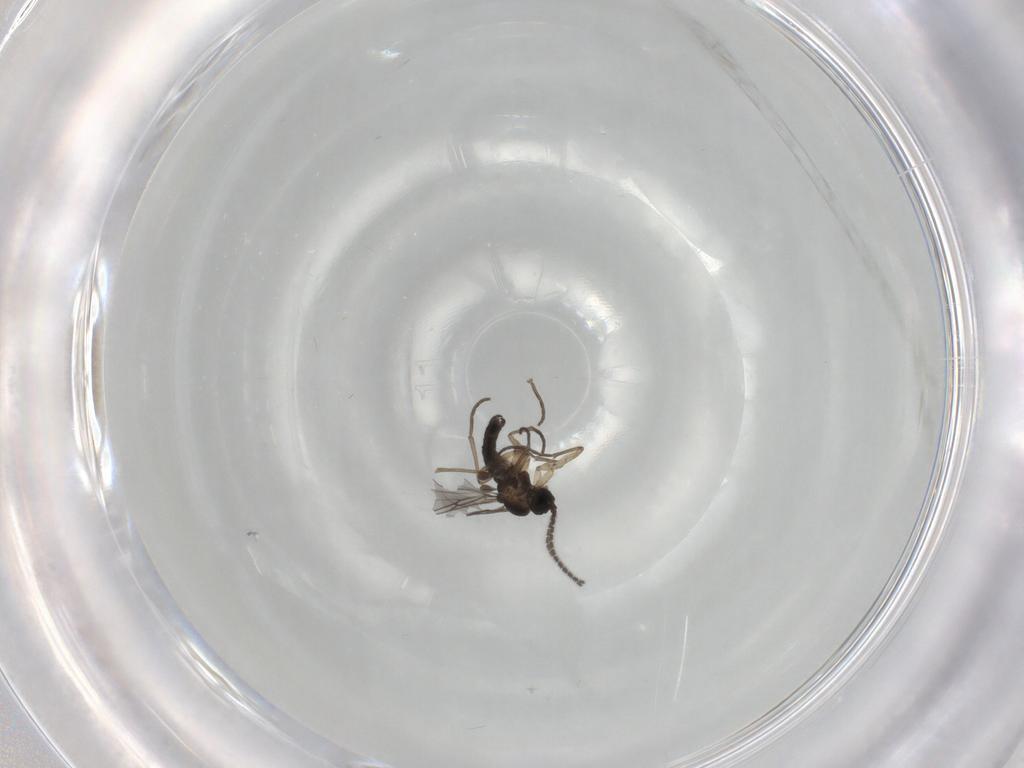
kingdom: Animalia
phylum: Arthropoda
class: Insecta
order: Diptera
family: Sciaridae
